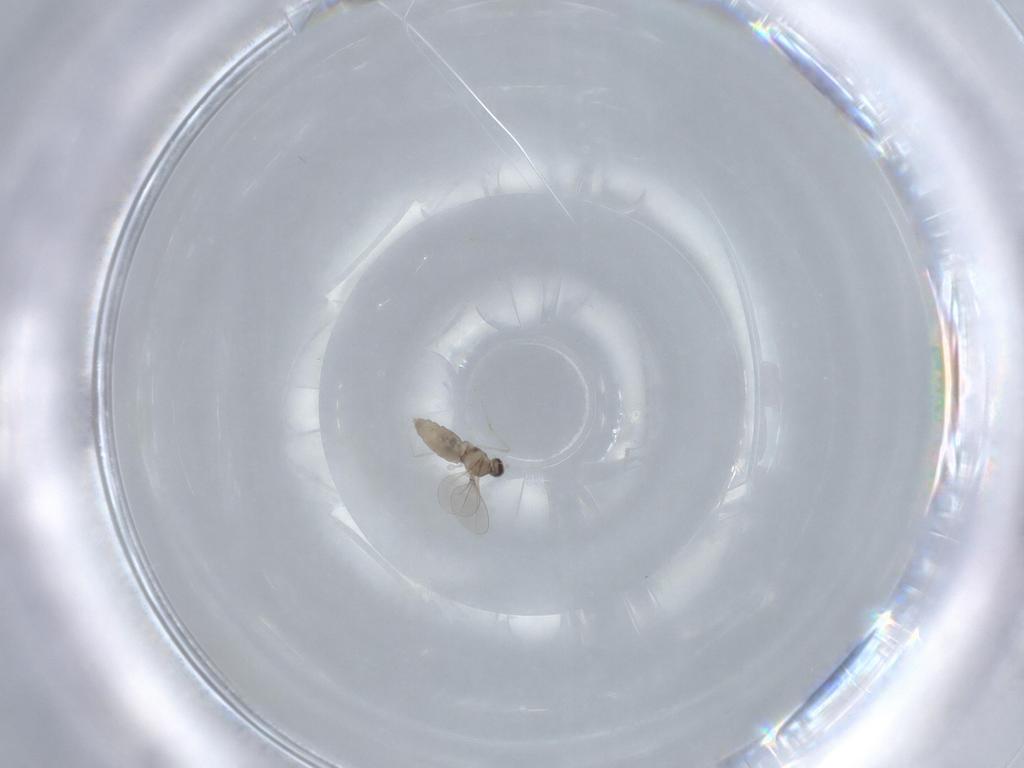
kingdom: Animalia
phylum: Arthropoda
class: Insecta
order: Diptera
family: Cecidomyiidae
